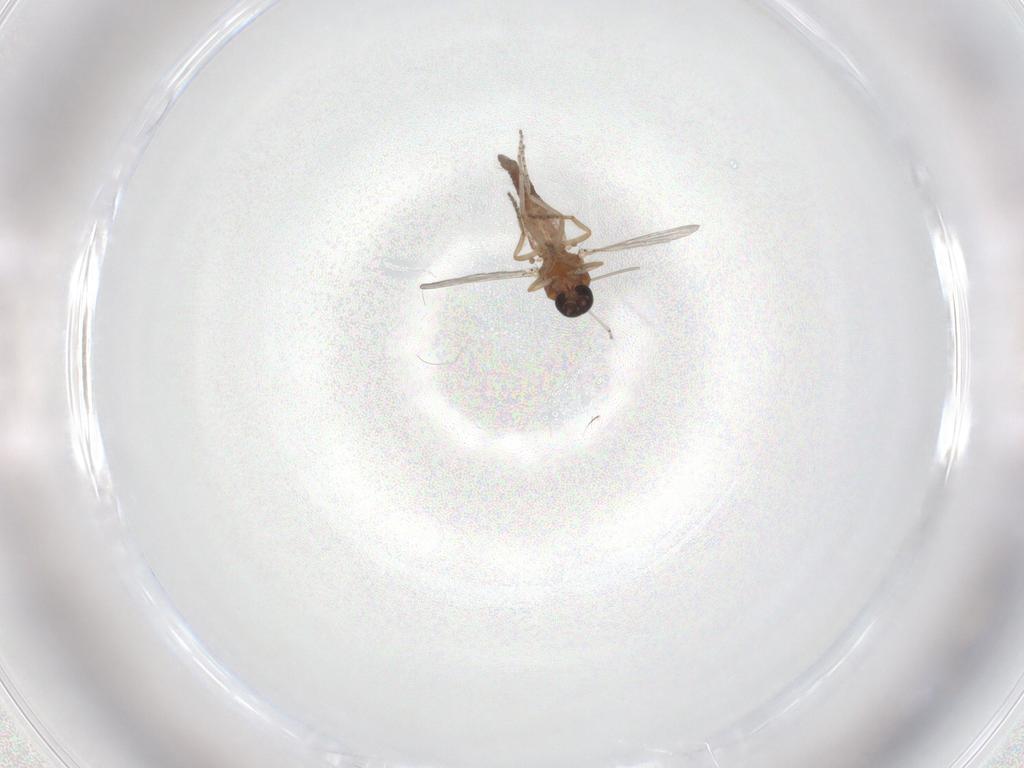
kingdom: Animalia
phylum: Arthropoda
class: Insecta
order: Diptera
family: Ceratopogonidae
